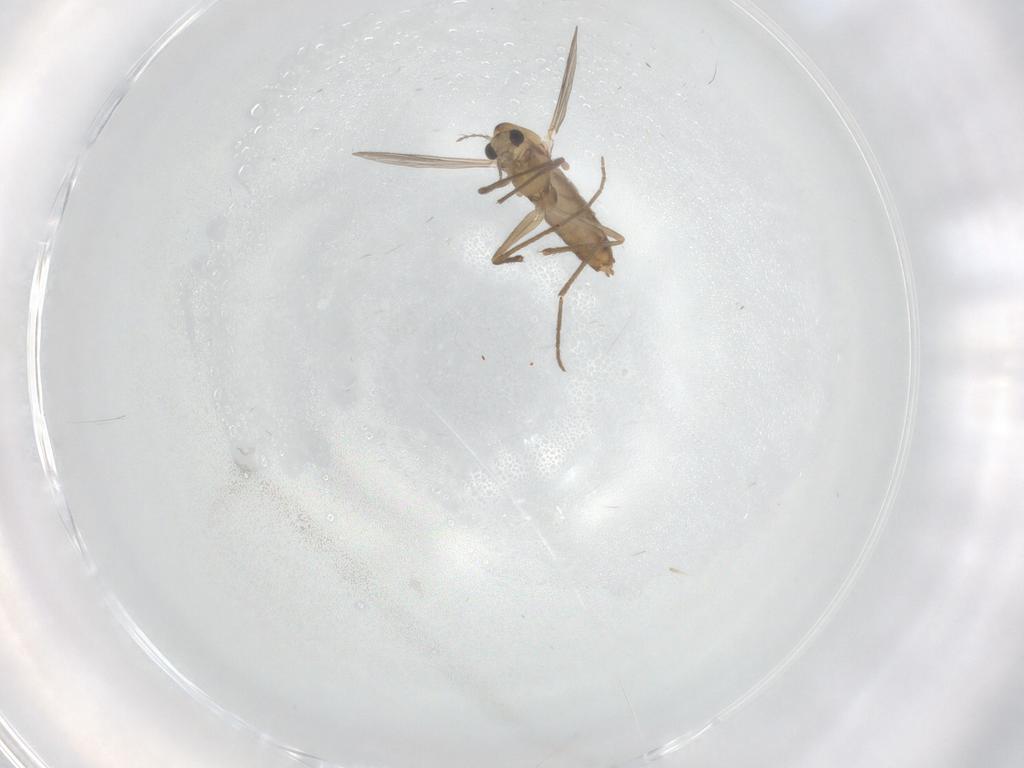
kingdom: Animalia
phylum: Arthropoda
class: Insecta
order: Diptera
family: Chironomidae
